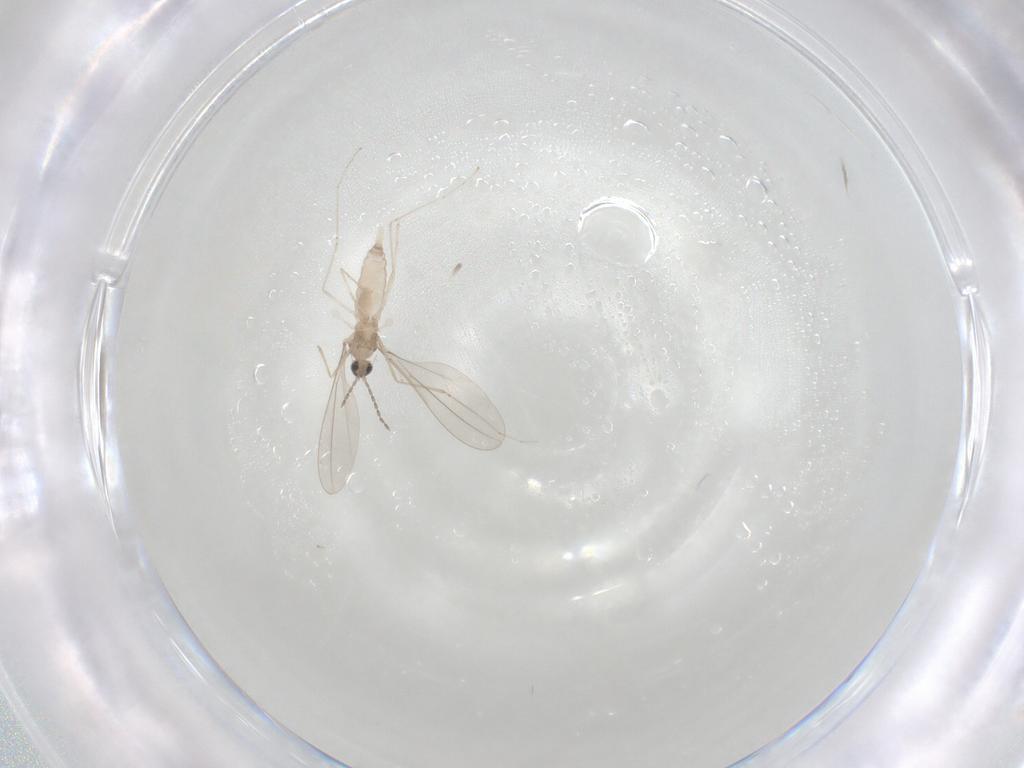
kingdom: Animalia
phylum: Arthropoda
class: Insecta
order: Diptera
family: Phoridae
